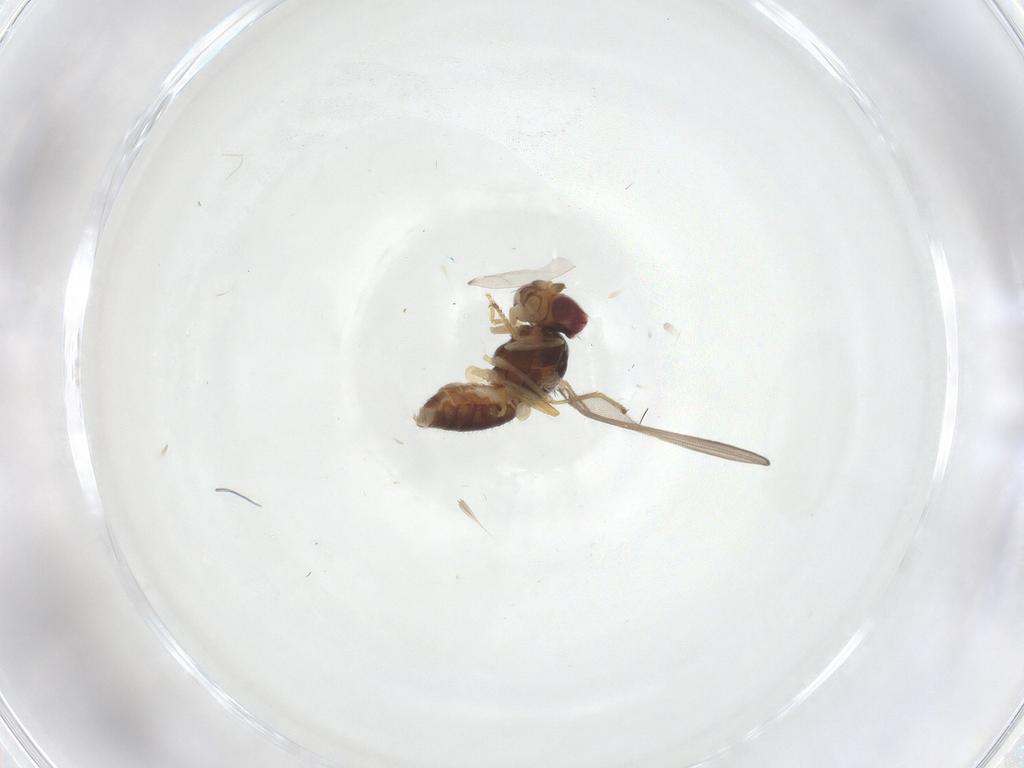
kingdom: Animalia
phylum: Arthropoda
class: Insecta
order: Diptera
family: Asteiidae
